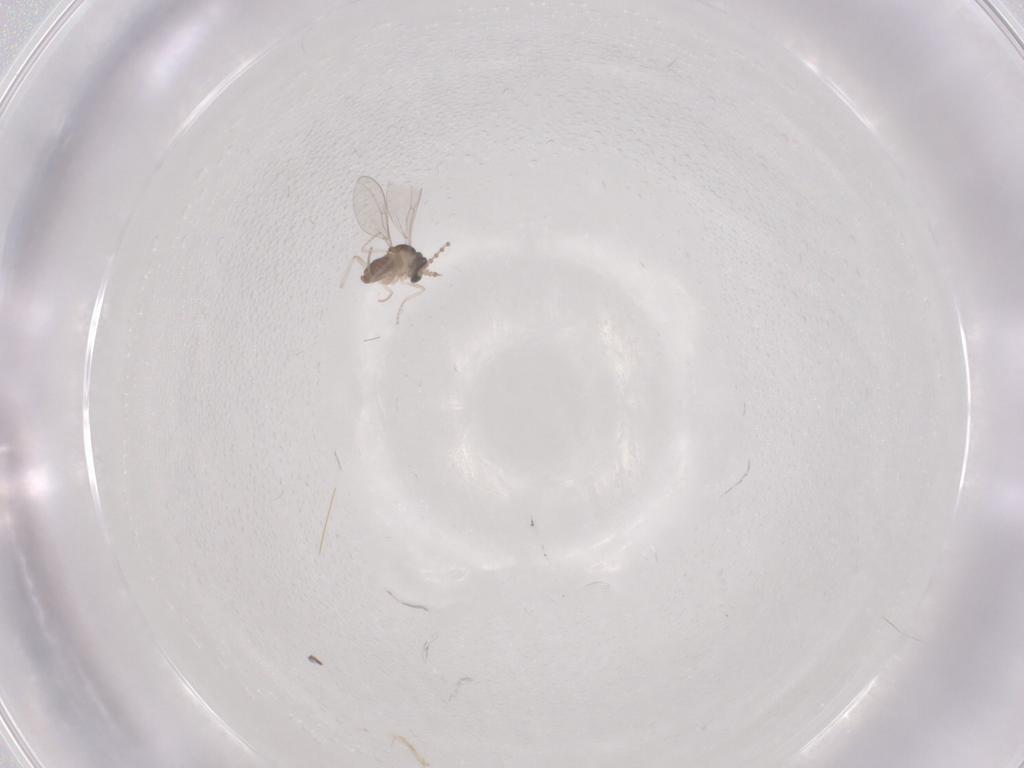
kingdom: Animalia
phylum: Arthropoda
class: Insecta
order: Diptera
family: Cecidomyiidae
